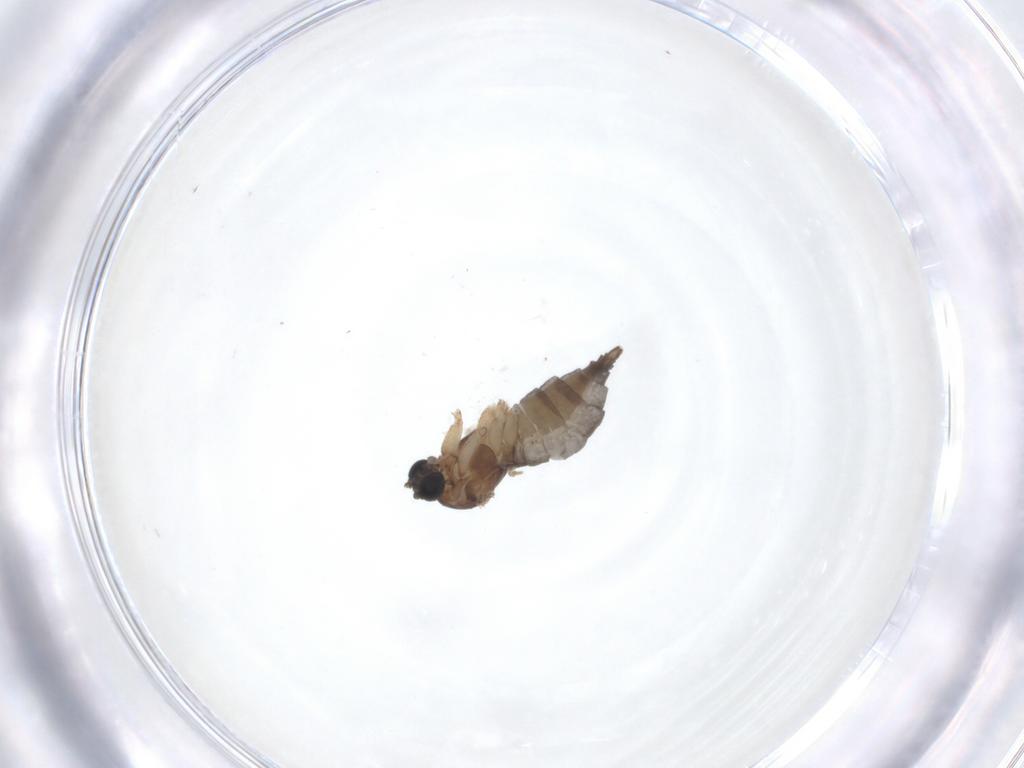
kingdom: Animalia
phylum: Arthropoda
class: Insecta
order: Diptera
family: Sciaridae
